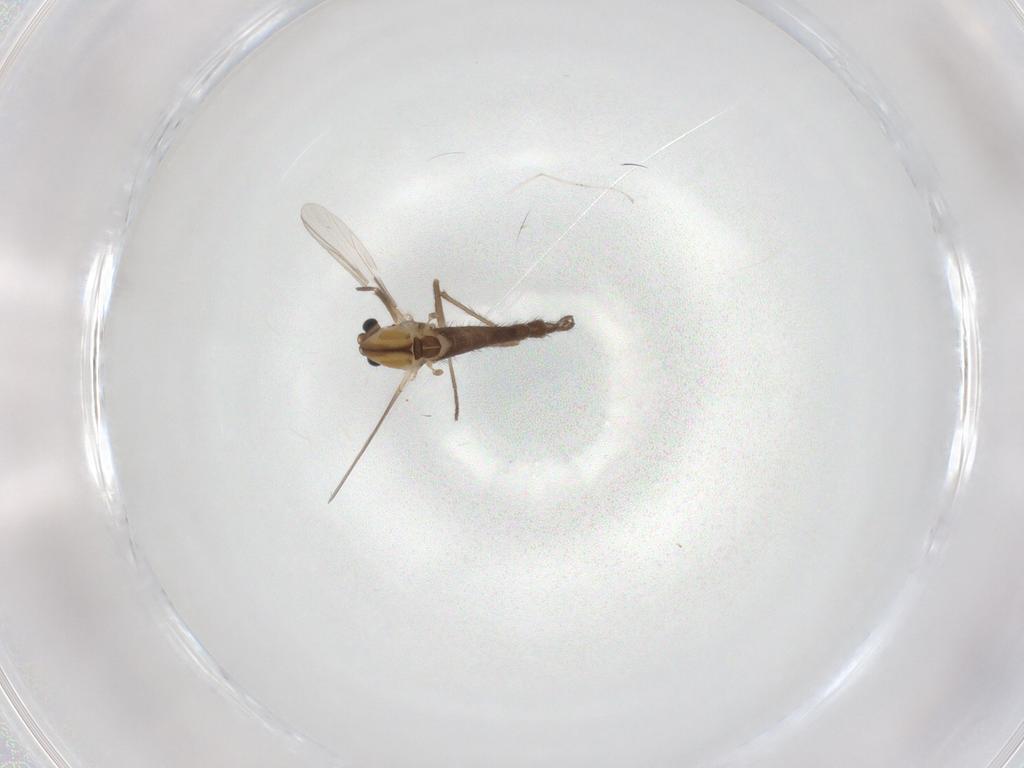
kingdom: Animalia
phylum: Arthropoda
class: Insecta
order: Diptera
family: Chironomidae
